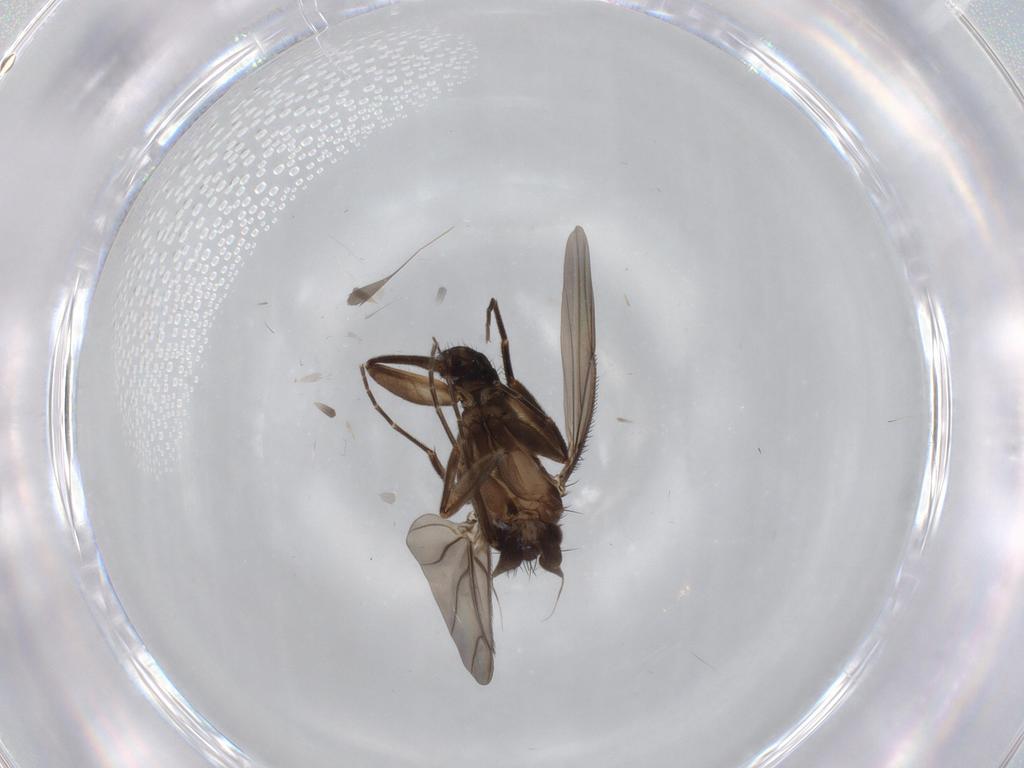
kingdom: Animalia
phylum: Arthropoda
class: Insecta
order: Diptera
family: Phoridae
